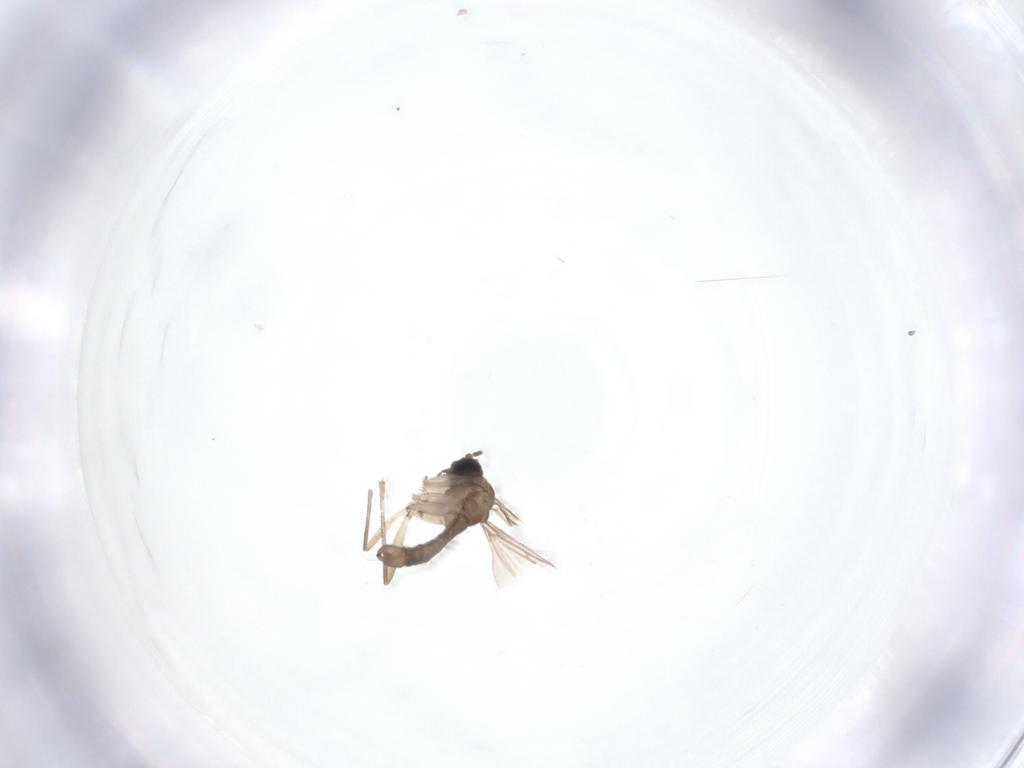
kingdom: Animalia
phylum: Arthropoda
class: Insecta
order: Diptera
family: Sciaridae
